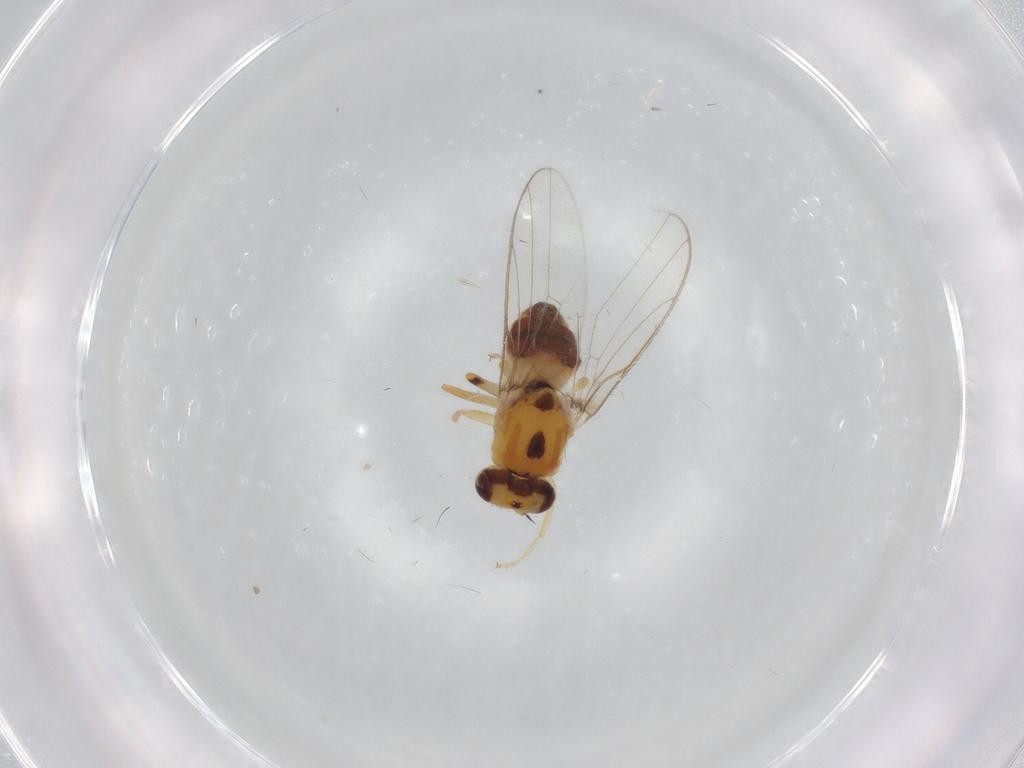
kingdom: Animalia
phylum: Arthropoda
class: Insecta
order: Diptera
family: Chloropidae
